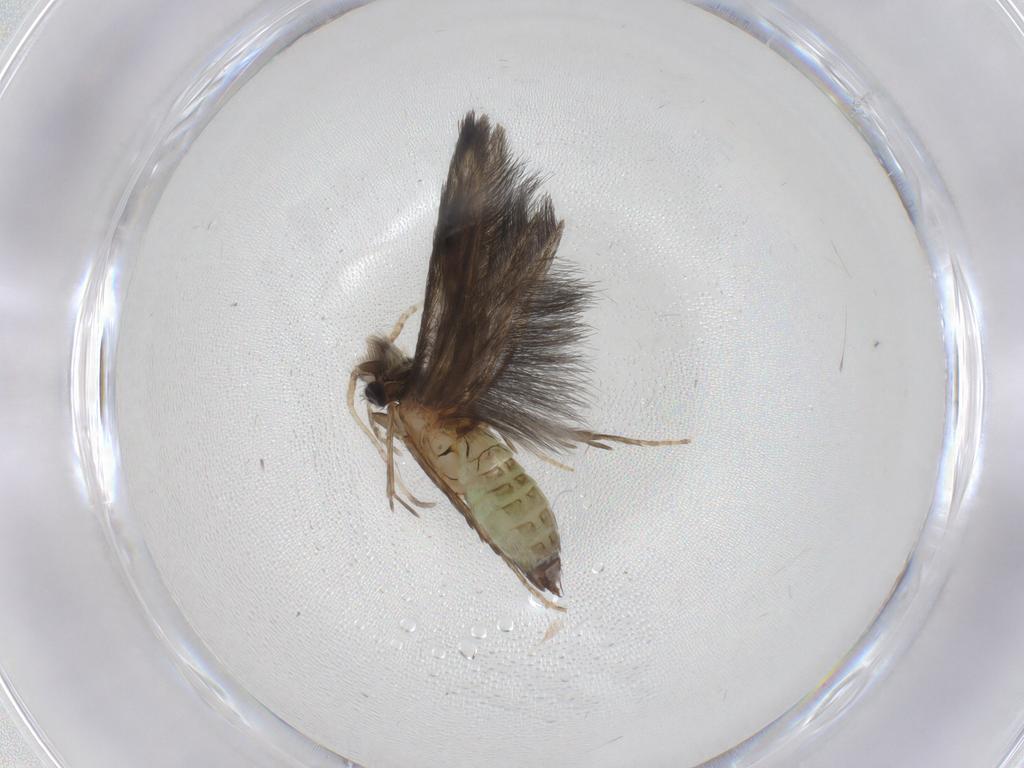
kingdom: Animalia
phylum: Arthropoda
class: Insecta
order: Trichoptera
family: Hydroptilidae
